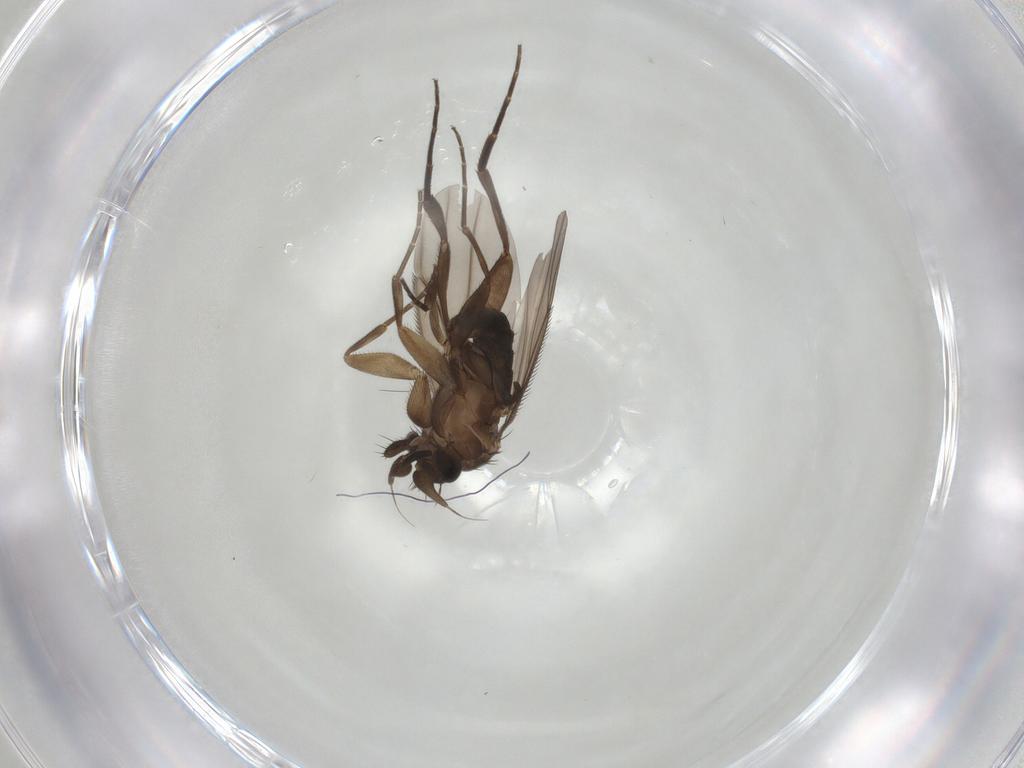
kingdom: Animalia
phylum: Arthropoda
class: Insecta
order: Diptera
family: Phoridae
